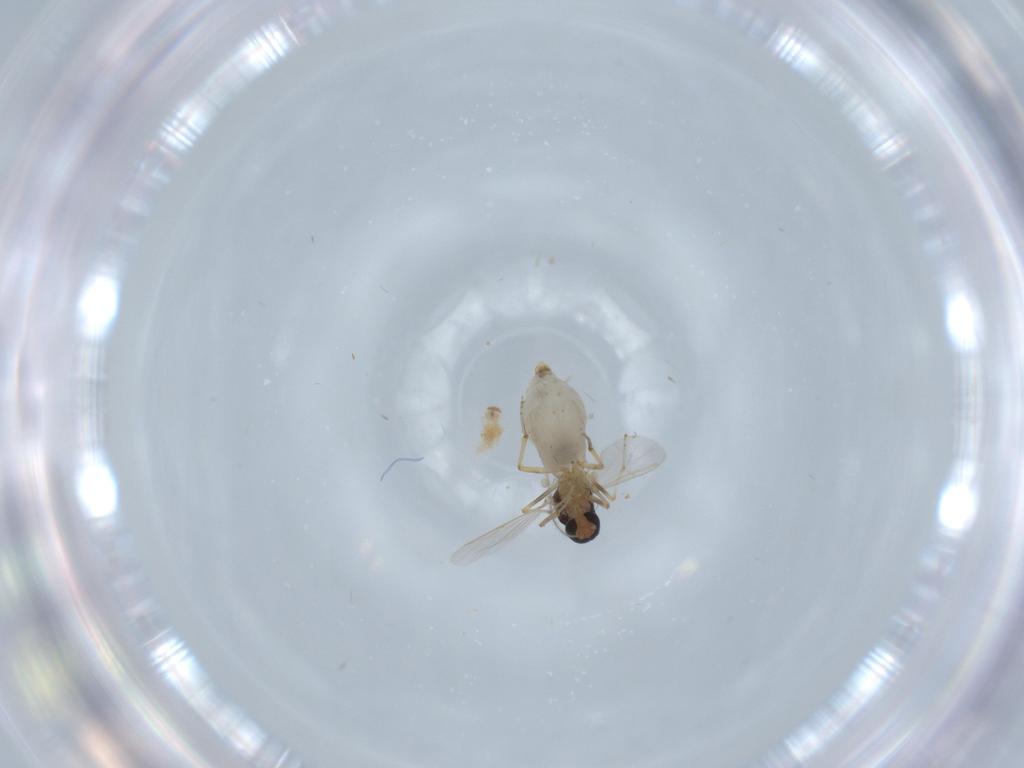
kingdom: Animalia
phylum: Arthropoda
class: Insecta
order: Diptera
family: Ceratopogonidae
